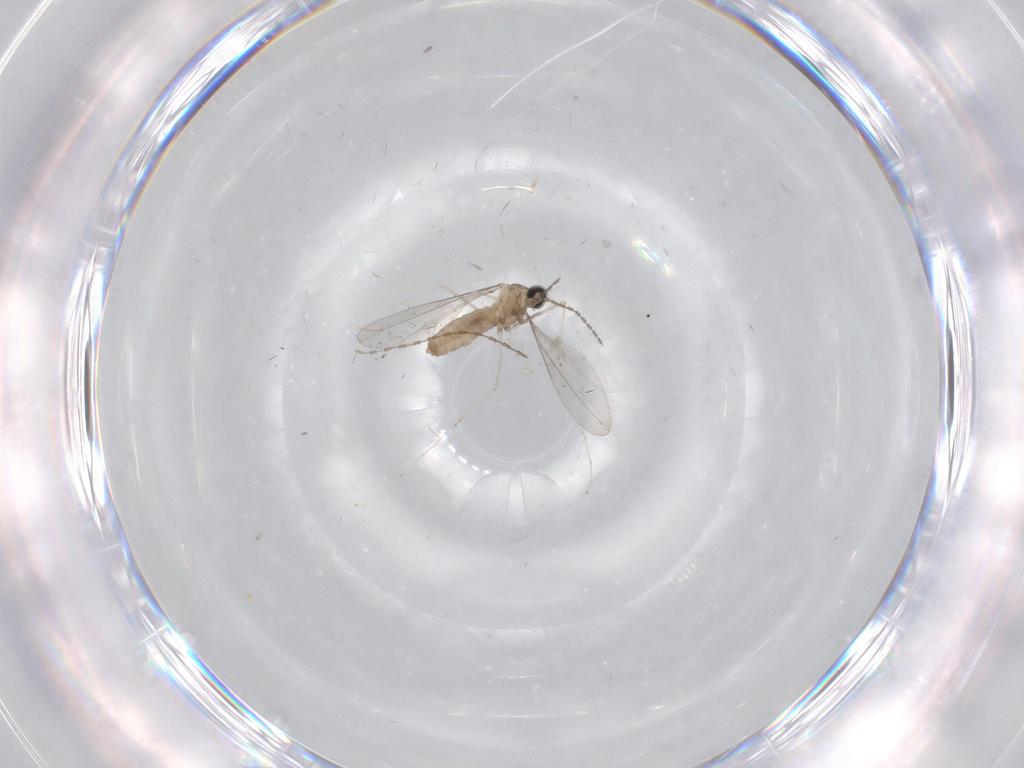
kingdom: Animalia
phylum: Arthropoda
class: Insecta
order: Diptera
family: Cecidomyiidae
